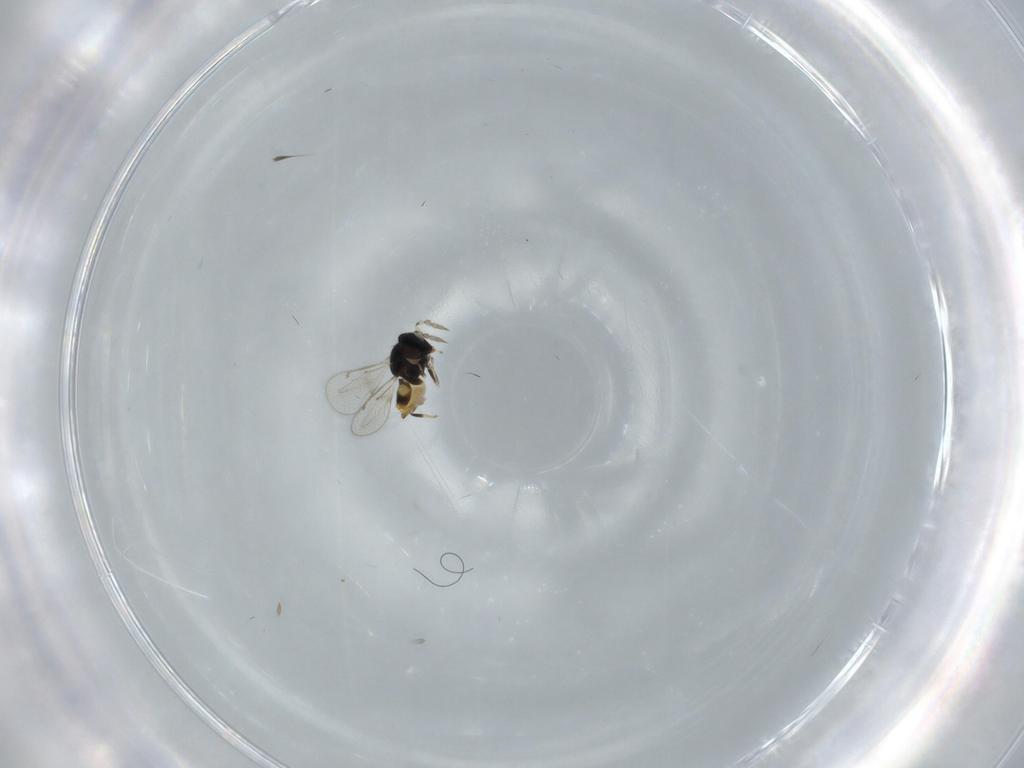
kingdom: Animalia
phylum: Arthropoda
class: Insecta
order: Hymenoptera
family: Eulophidae
